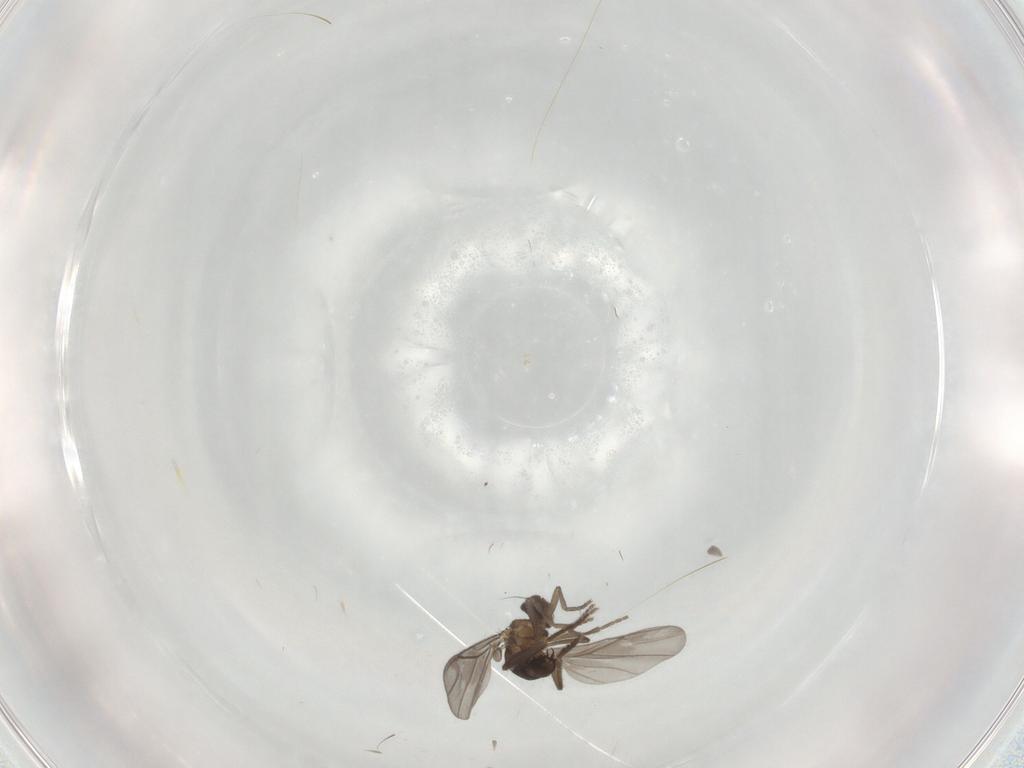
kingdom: Animalia
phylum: Arthropoda
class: Insecta
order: Diptera
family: Phoridae
